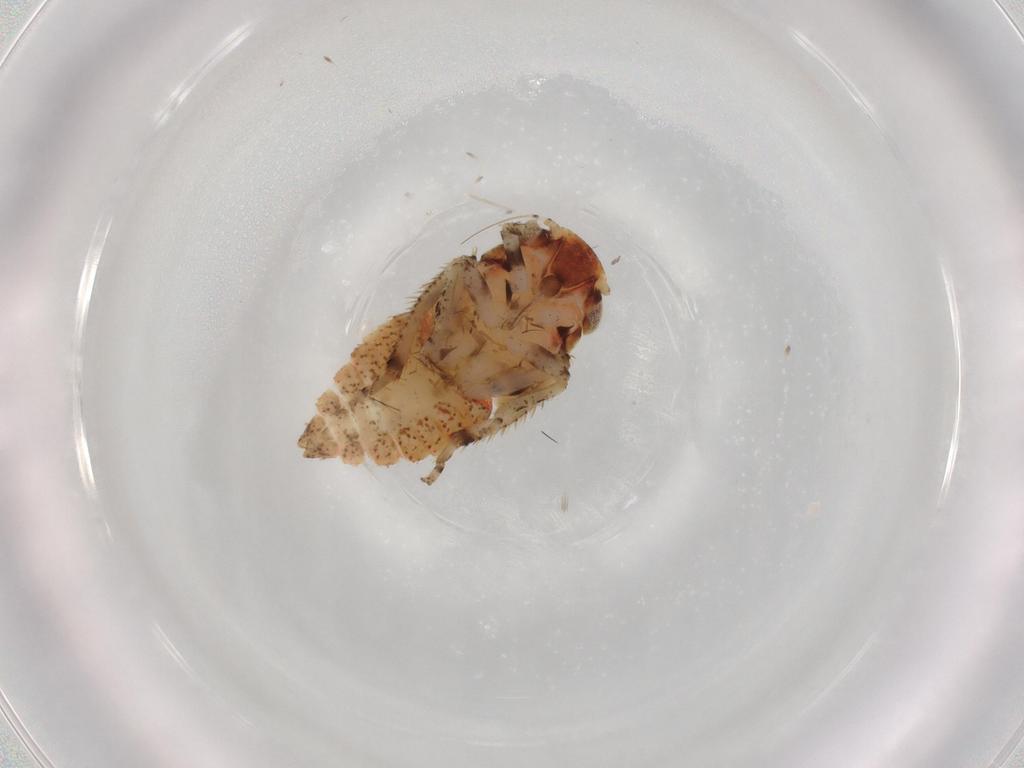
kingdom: Animalia
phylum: Arthropoda
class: Insecta
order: Hemiptera
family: Cicadellidae
